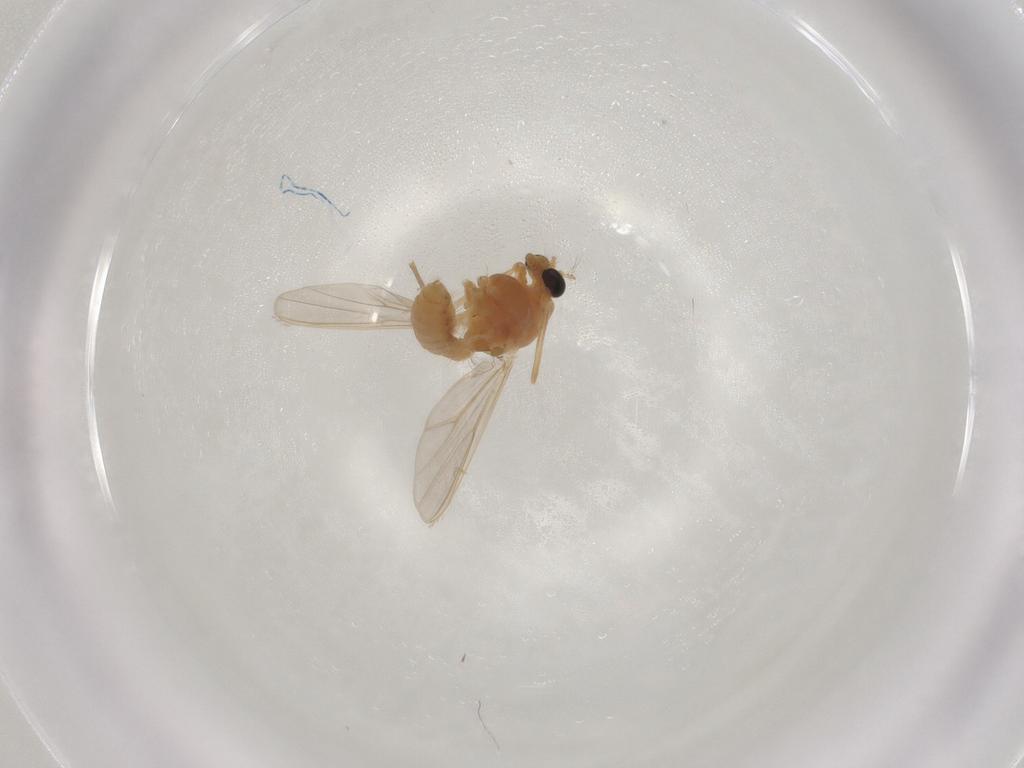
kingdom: Animalia
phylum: Arthropoda
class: Insecta
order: Diptera
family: Chironomidae
